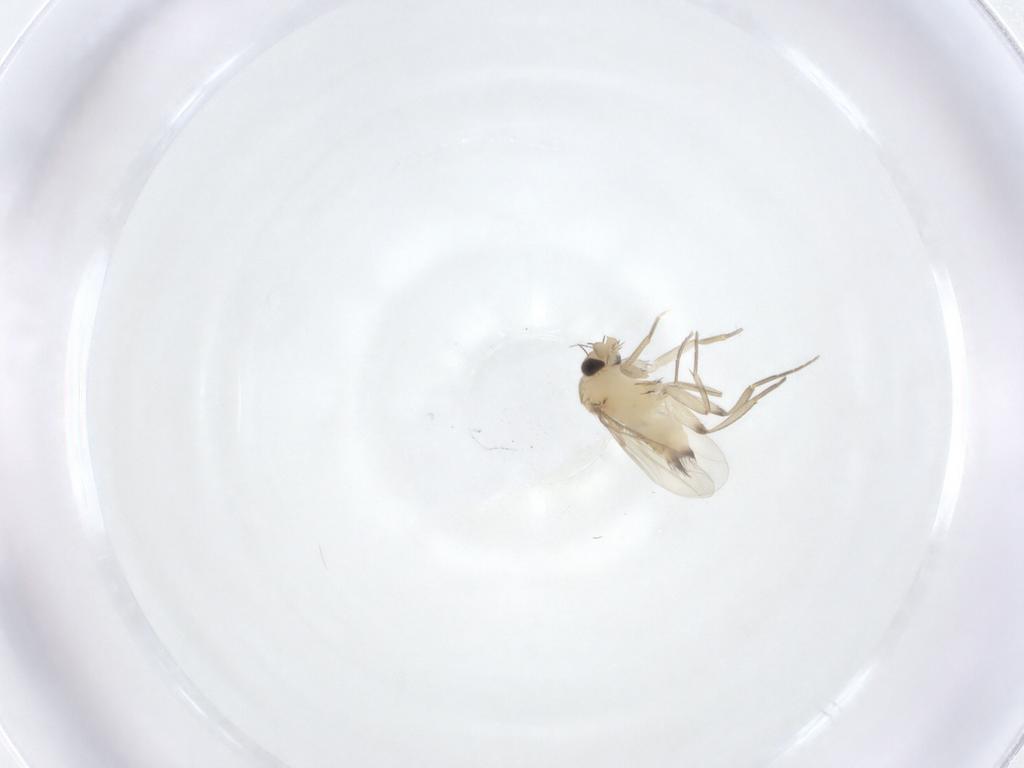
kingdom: Animalia
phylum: Arthropoda
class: Insecta
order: Diptera
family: Phoridae
